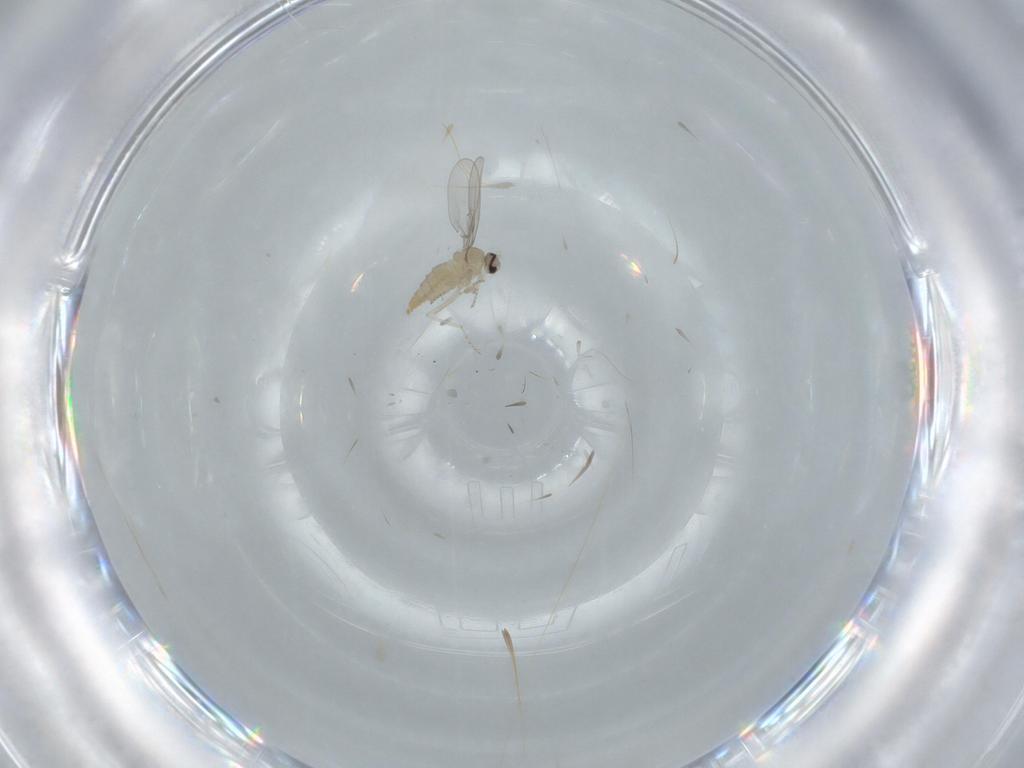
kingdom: Animalia
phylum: Arthropoda
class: Insecta
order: Diptera
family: Cecidomyiidae
